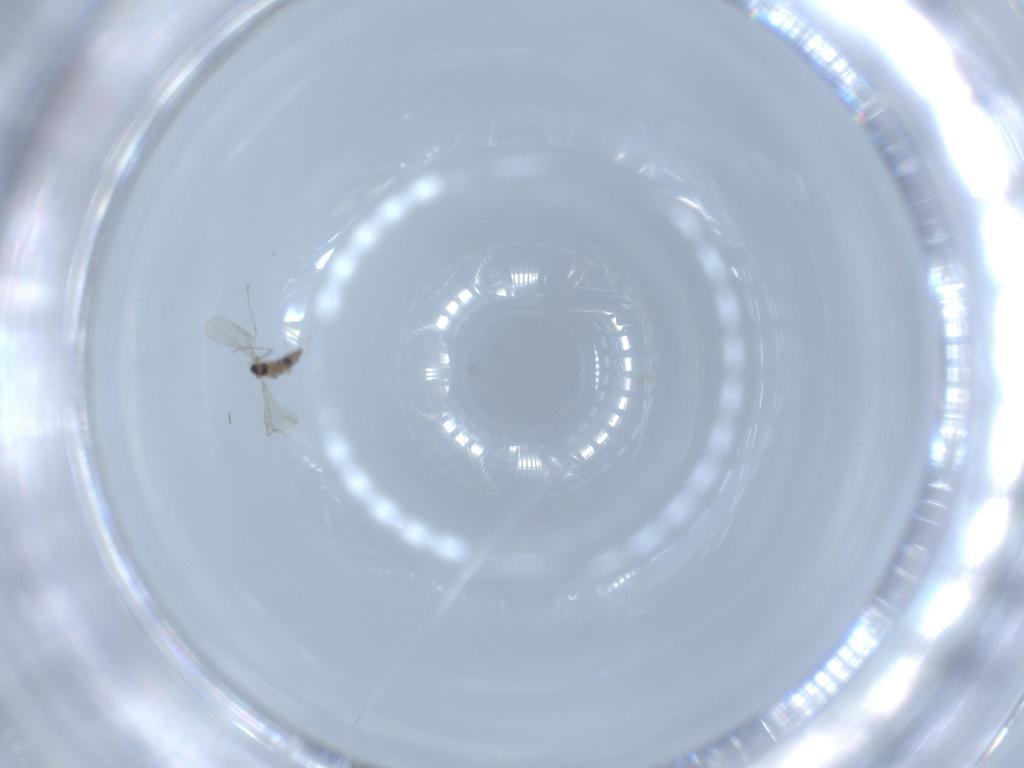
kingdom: Animalia
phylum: Arthropoda
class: Insecta
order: Diptera
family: Cecidomyiidae
